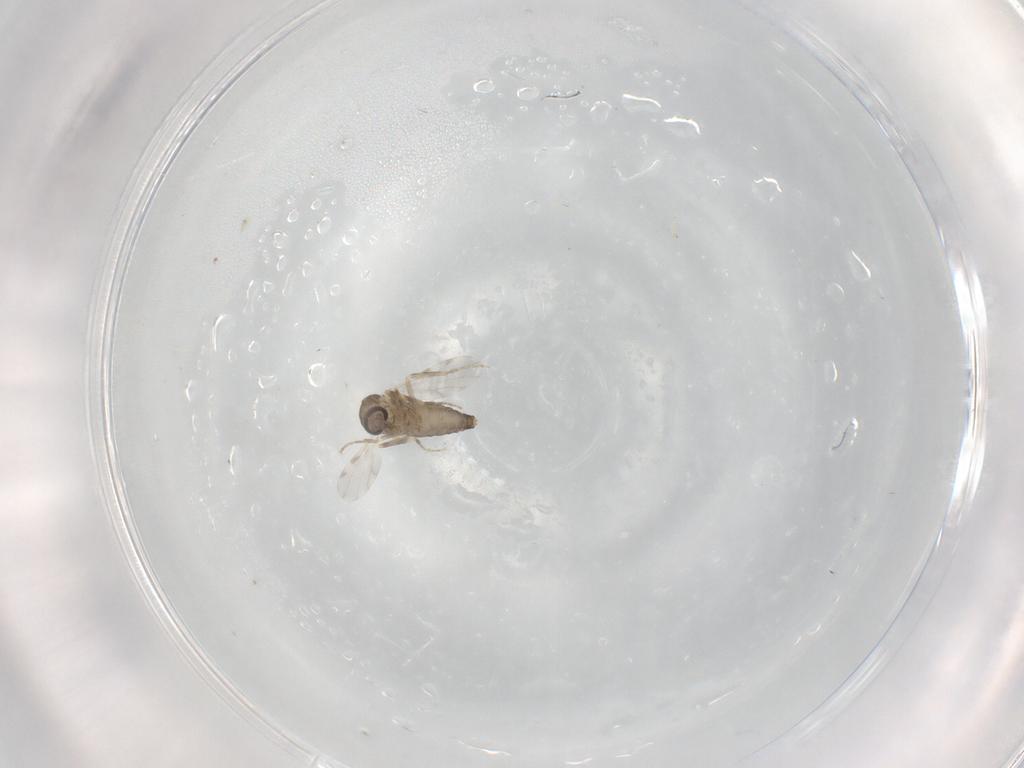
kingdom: Animalia
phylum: Arthropoda
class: Insecta
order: Diptera
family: Ceratopogonidae
